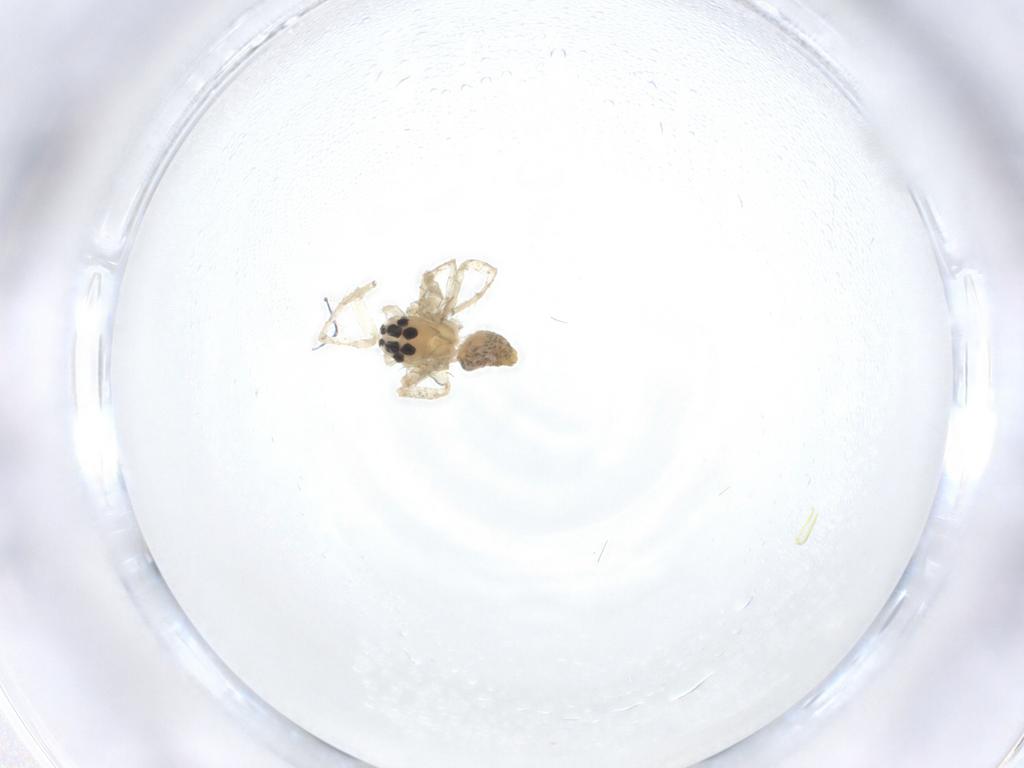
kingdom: Animalia
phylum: Arthropoda
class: Arachnida
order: Araneae
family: Oxyopidae
